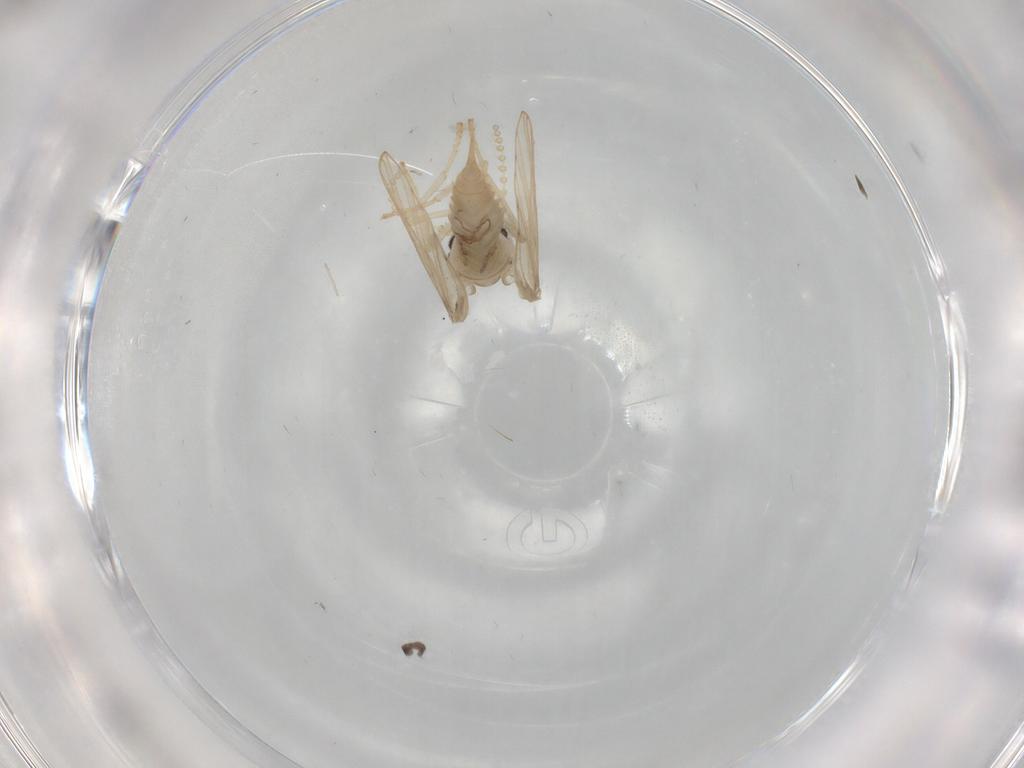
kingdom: Animalia
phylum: Arthropoda
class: Insecta
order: Diptera
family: Psychodidae
